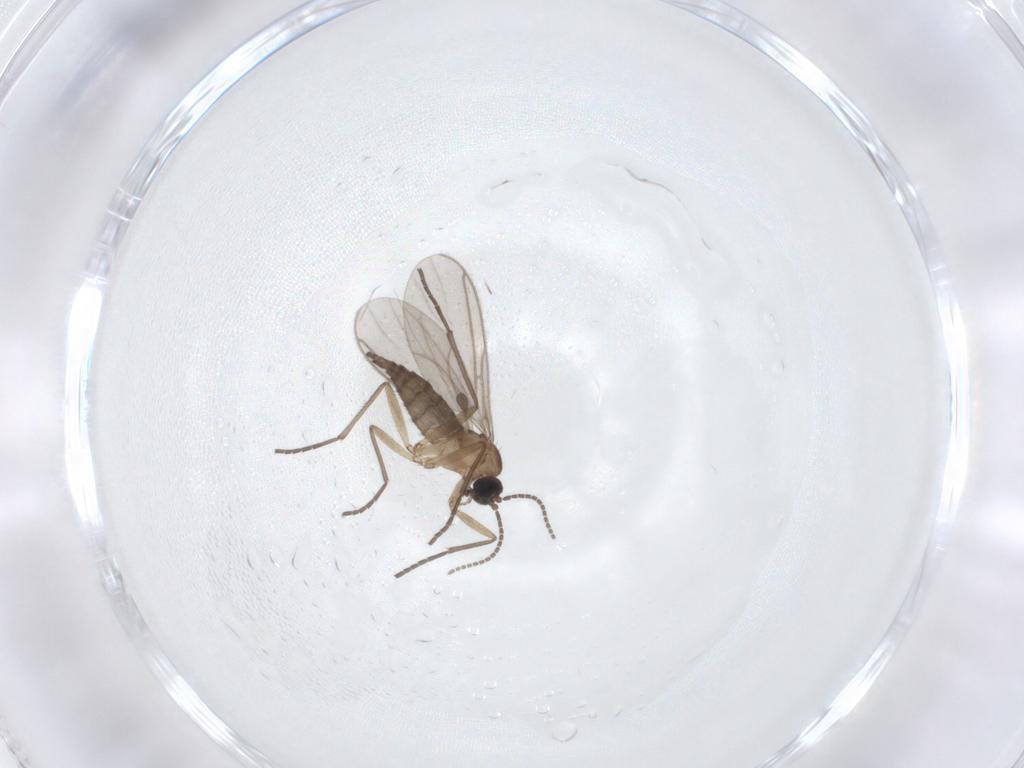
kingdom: Animalia
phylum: Arthropoda
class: Insecta
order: Diptera
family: Sciaridae
